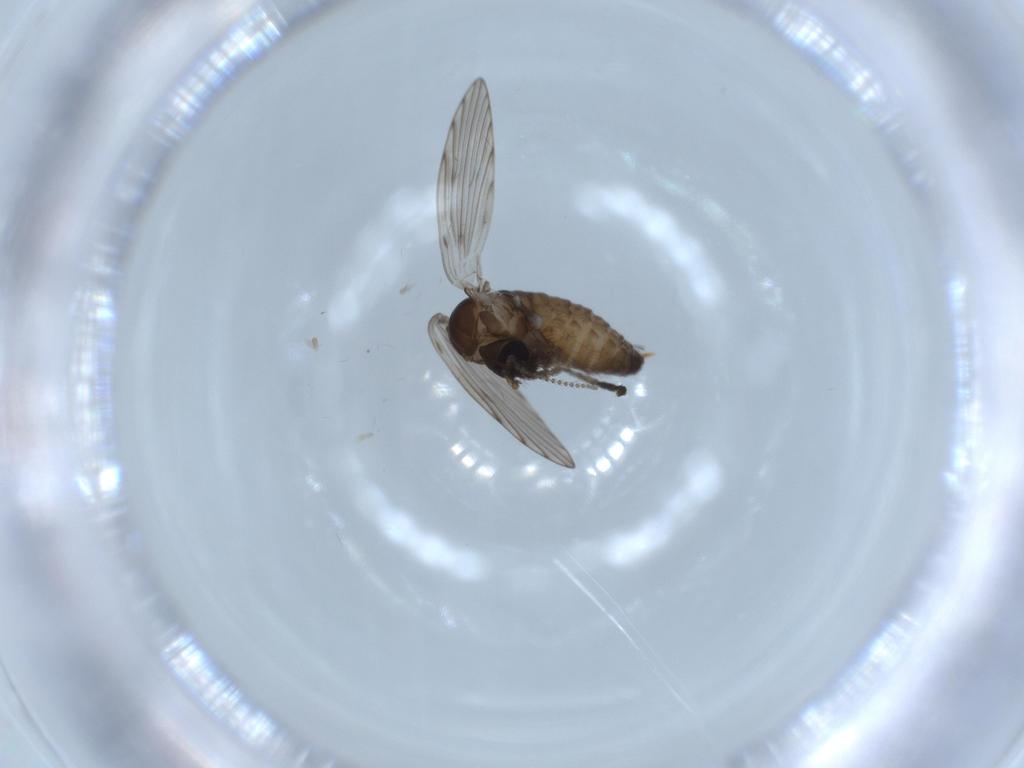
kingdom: Animalia
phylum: Arthropoda
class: Insecta
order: Diptera
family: Psychodidae
